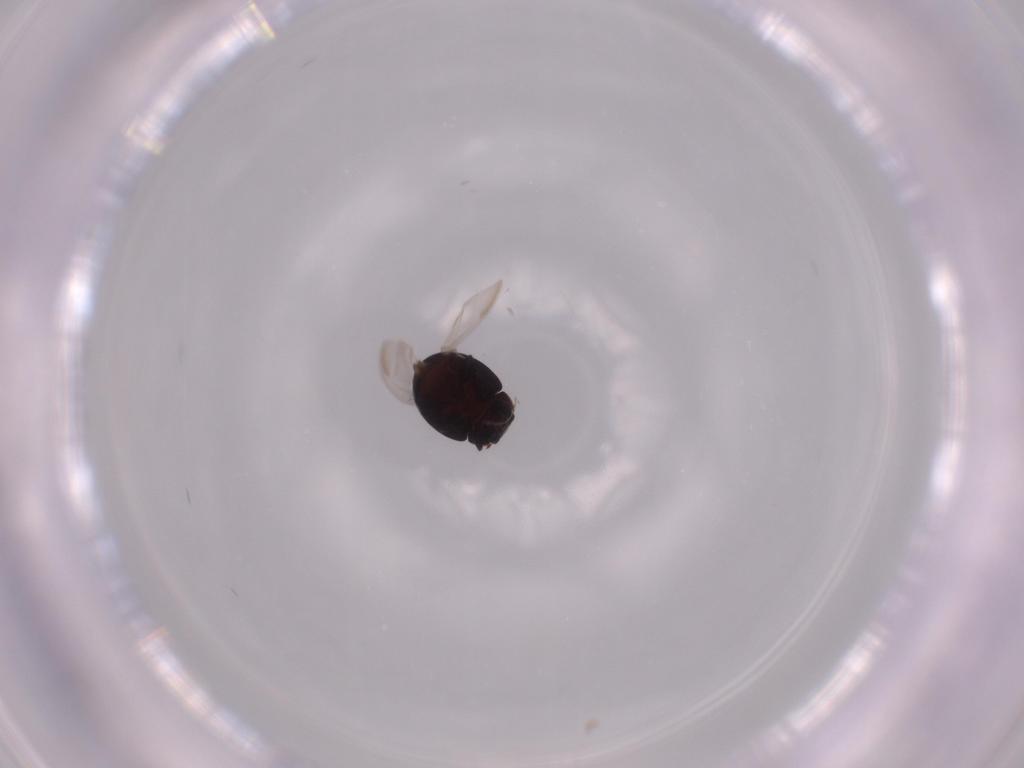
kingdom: Animalia
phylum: Arthropoda
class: Insecta
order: Coleoptera
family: Coccinellidae
